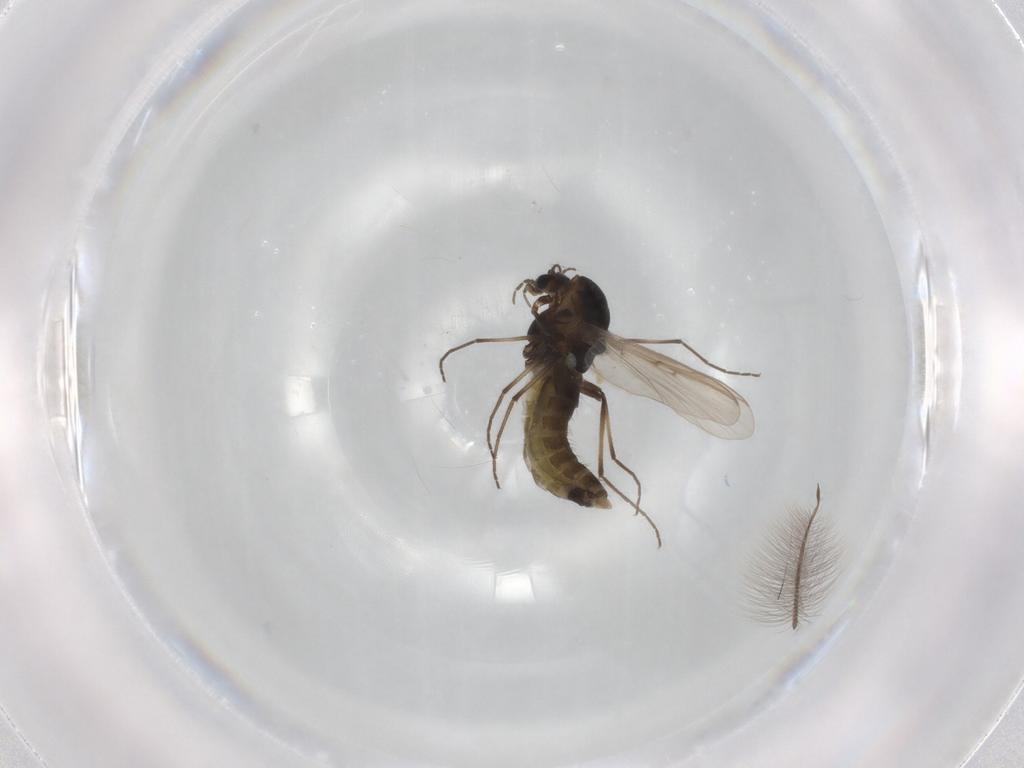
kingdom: Animalia
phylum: Arthropoda
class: Insecta
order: Diptera
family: Chironomidae
